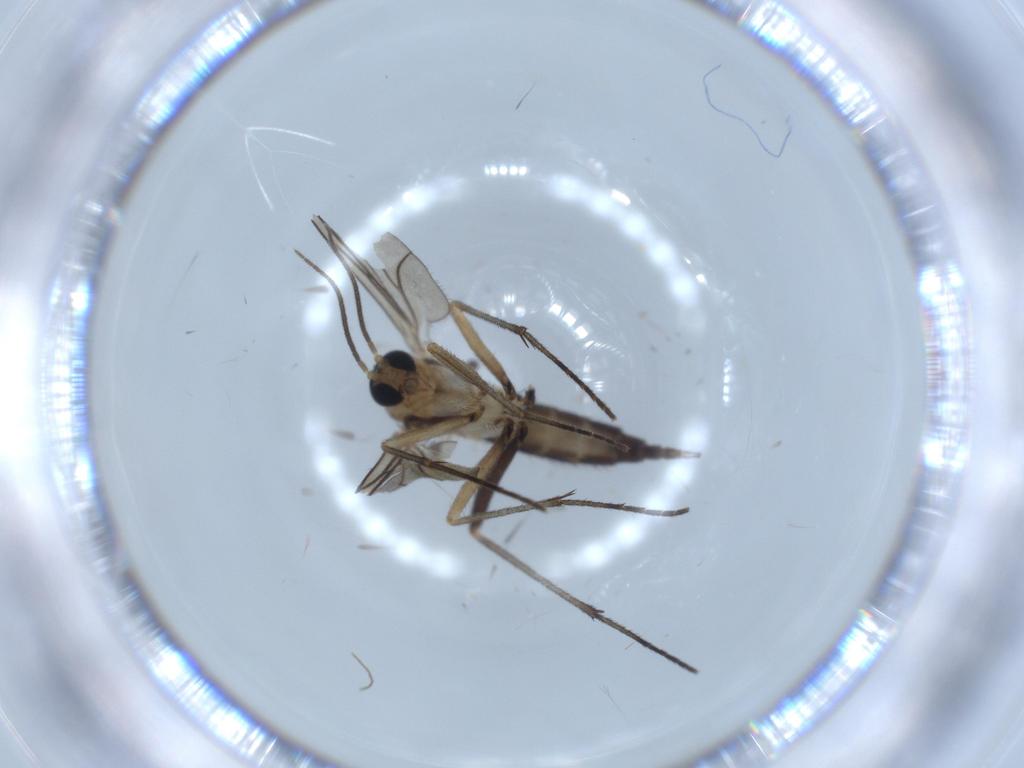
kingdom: Animalia
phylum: Arthropoda
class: Insecta
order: Diptera
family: Sciaridae
